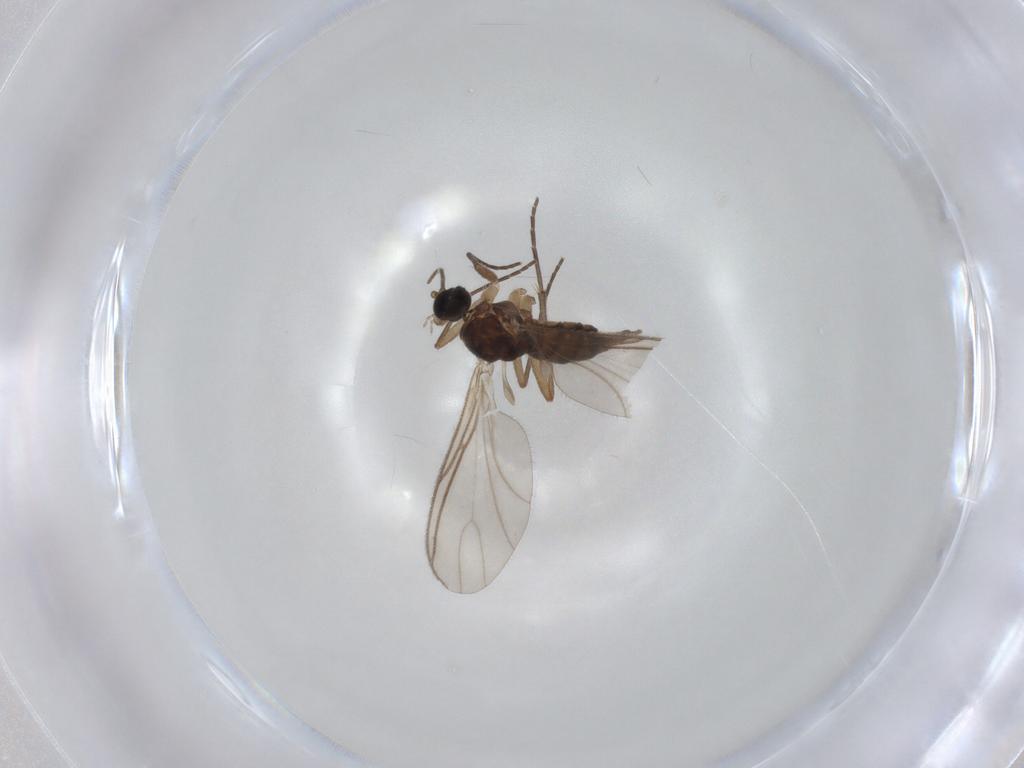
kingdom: Animalia
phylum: Arthropoda
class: Insecta
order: Diptera
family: Sciaridae
